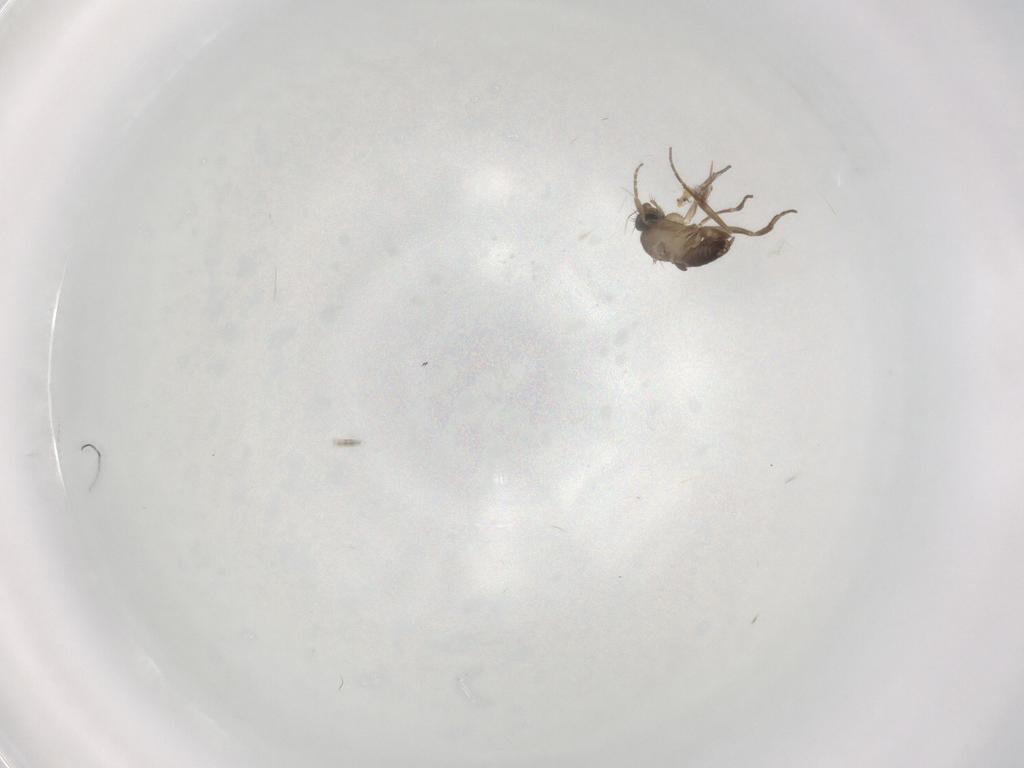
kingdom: Animalia
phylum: Arthropoda
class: Insecta
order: Diptera
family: Phoridae
